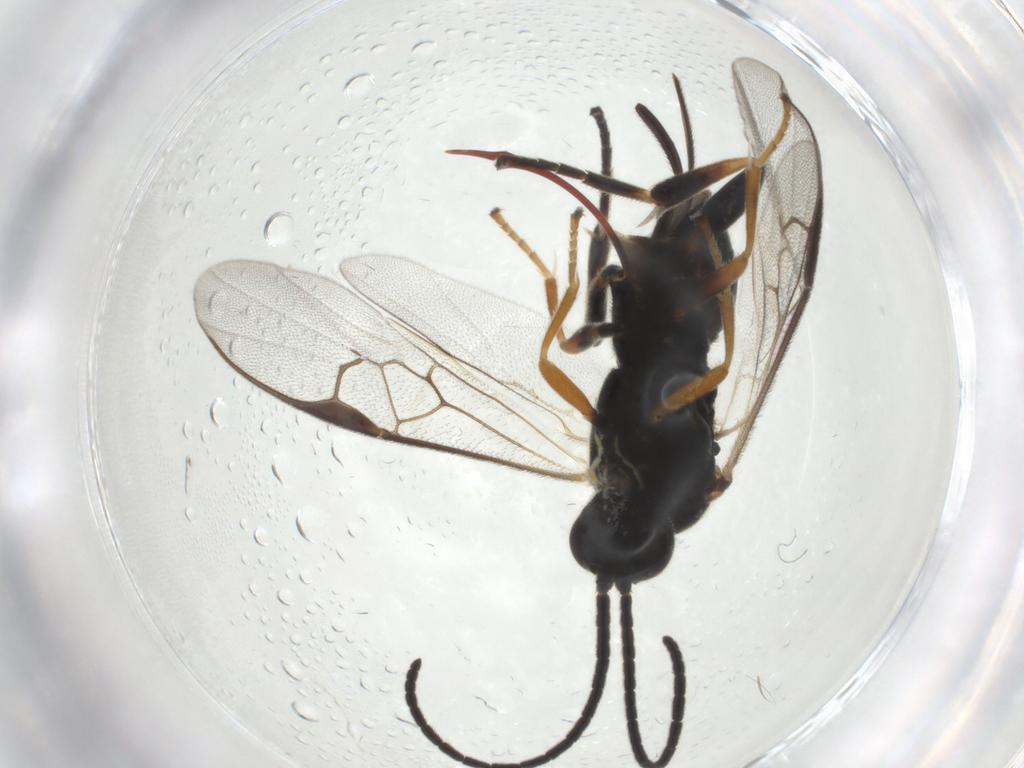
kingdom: Animalia
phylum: Arthropoda
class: Insecta
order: Hymenoptera
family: Braconidae
